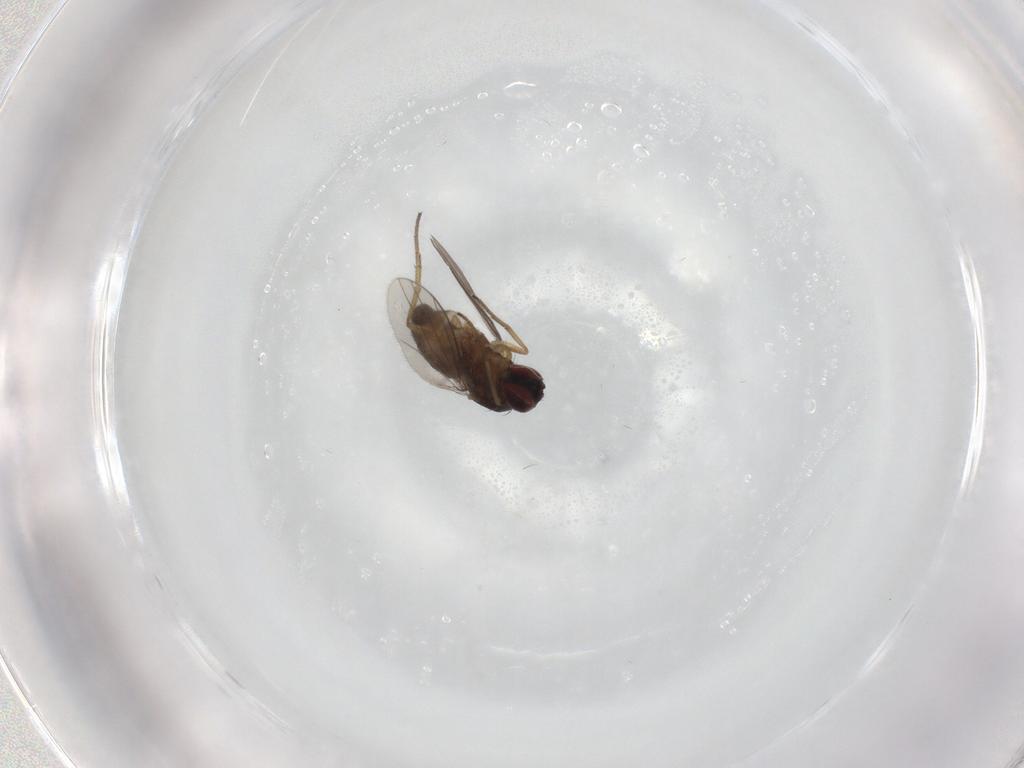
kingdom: Animalia
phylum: Arthropoda
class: Insecta
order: Diptera
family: Dolichopodidae
